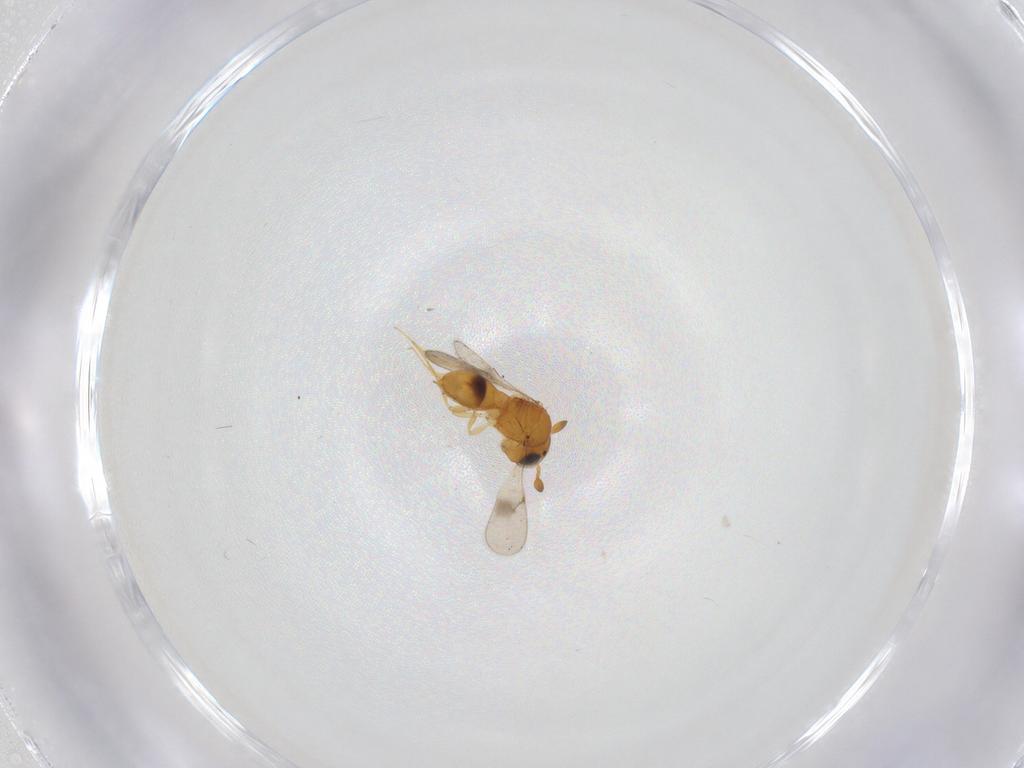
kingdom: Animalia
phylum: Arthropoda
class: Insecta
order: Hymenoptera
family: Scelionidae
